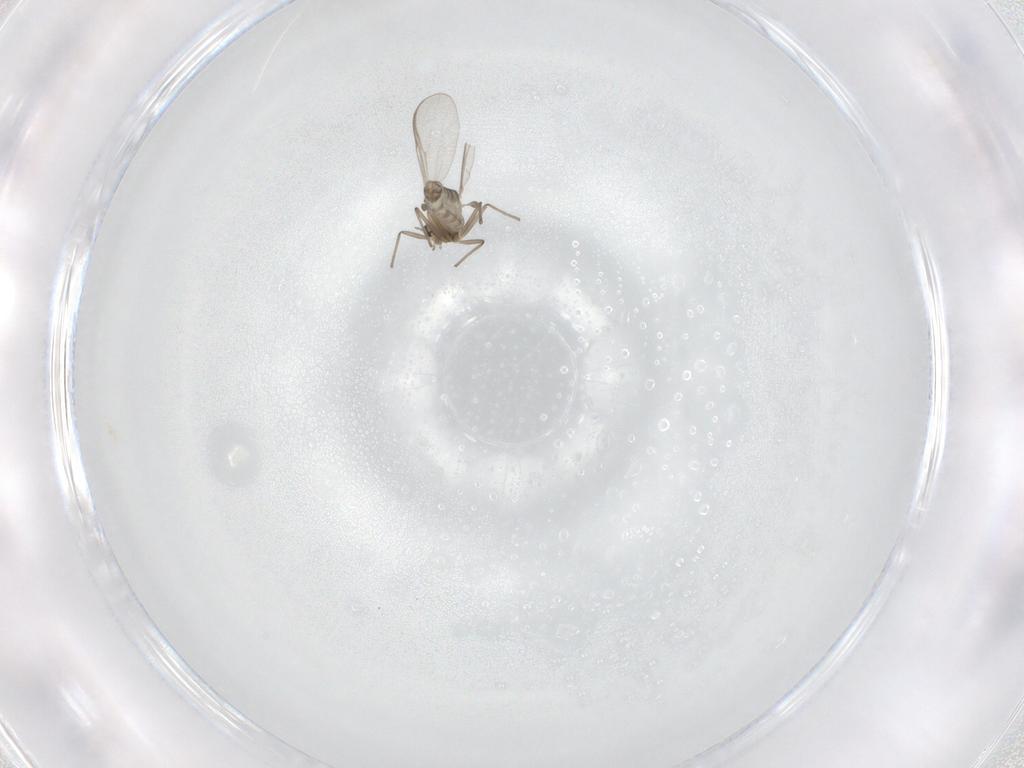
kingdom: Animalia
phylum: Arthropoda
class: Insecta
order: Diptera
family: Chironomidae
